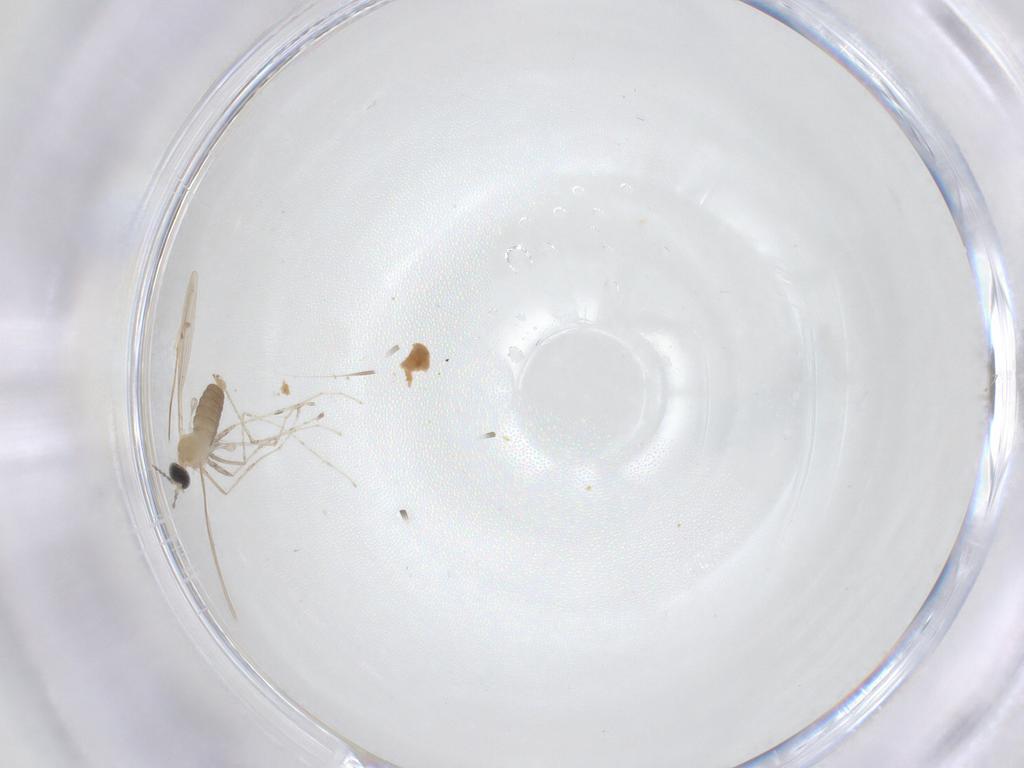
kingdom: Animalia
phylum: Arthropoda
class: Insecta
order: Diptera
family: Cecidomyiidae
